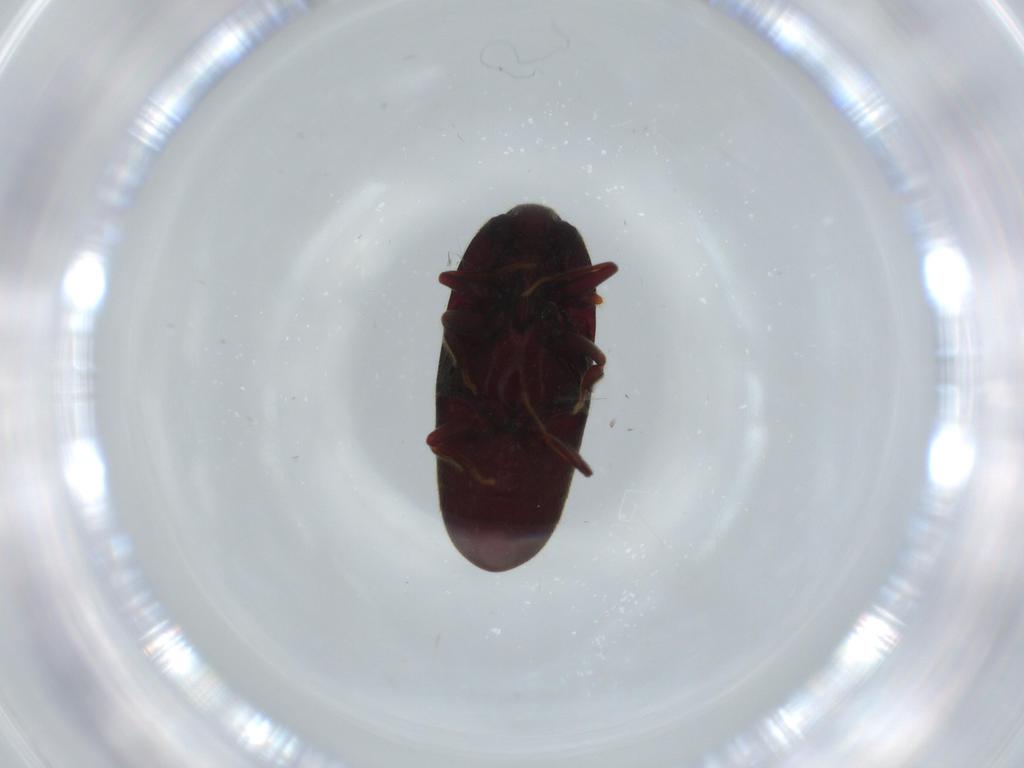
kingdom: Animalia
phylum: Arthropoda
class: Insecta
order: Coleoptera
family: Throscidae
